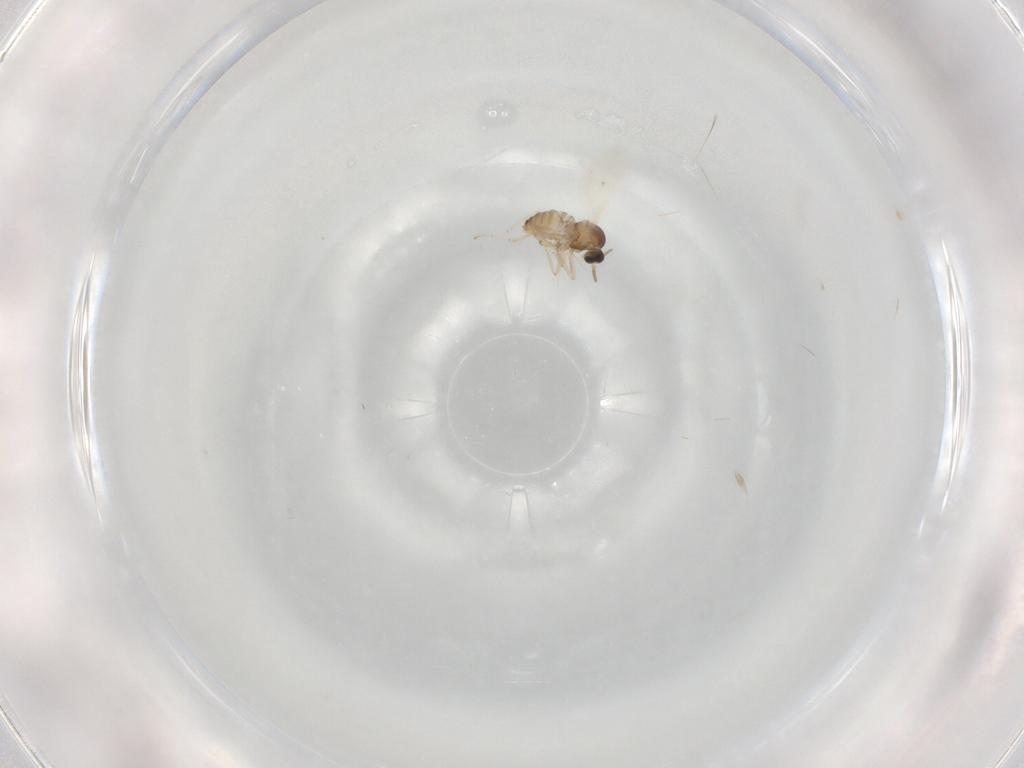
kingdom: Animalia
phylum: Arthropoda
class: Insecta
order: Diptera
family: Cecidomyiidae
